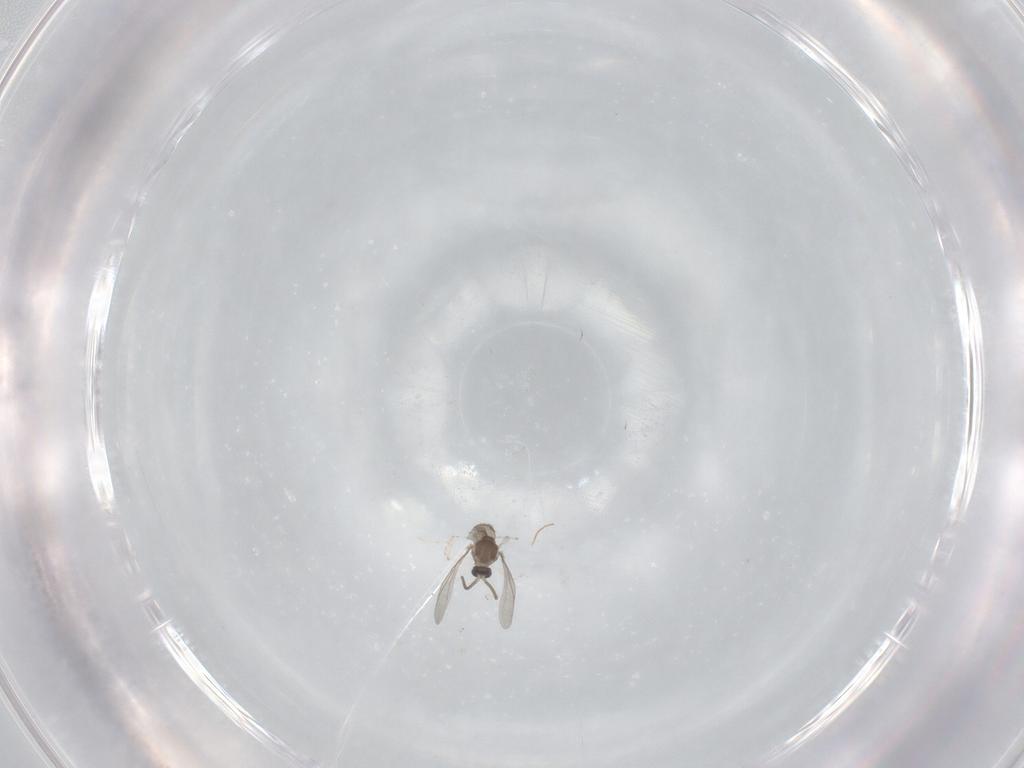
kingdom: Animalia
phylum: Arthropoda
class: Insecta
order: Diptera
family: Cecidomyiidae
